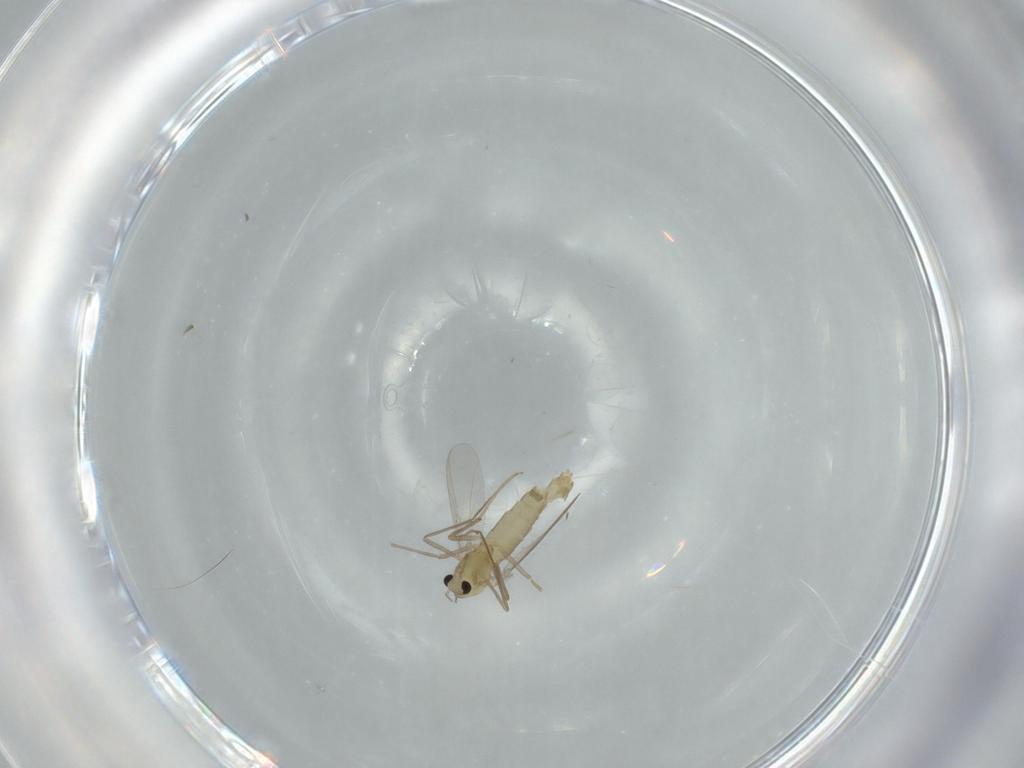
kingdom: Animalia
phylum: Arthropoda
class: Insecta
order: Diptera
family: Chironomidae
